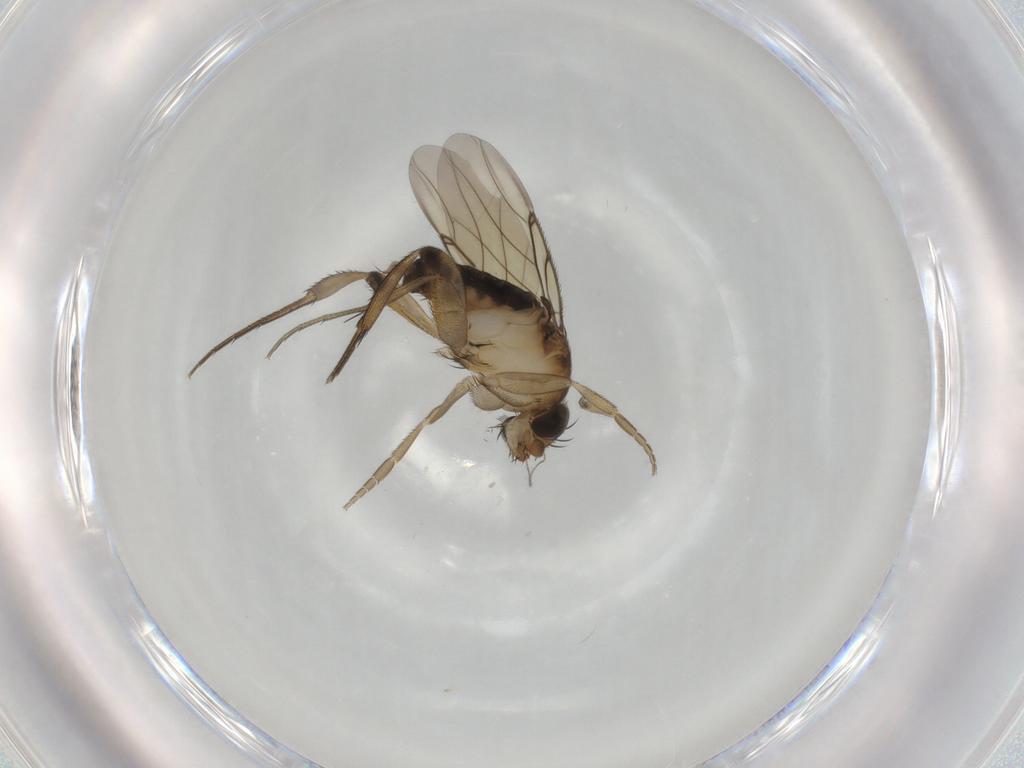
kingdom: Animalia
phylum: Arthropoda
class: Insecta
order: Diptera
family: Phoridae
